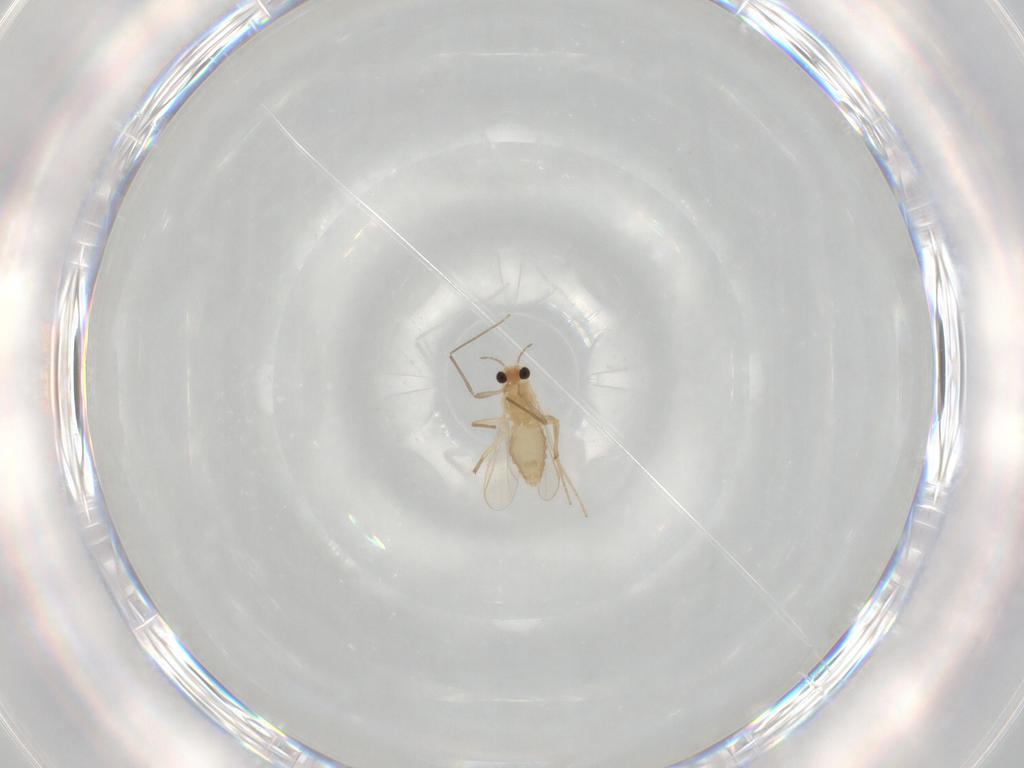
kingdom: Animalia
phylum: Arthropoda
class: Insecta
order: Diptera
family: Chironomidae
